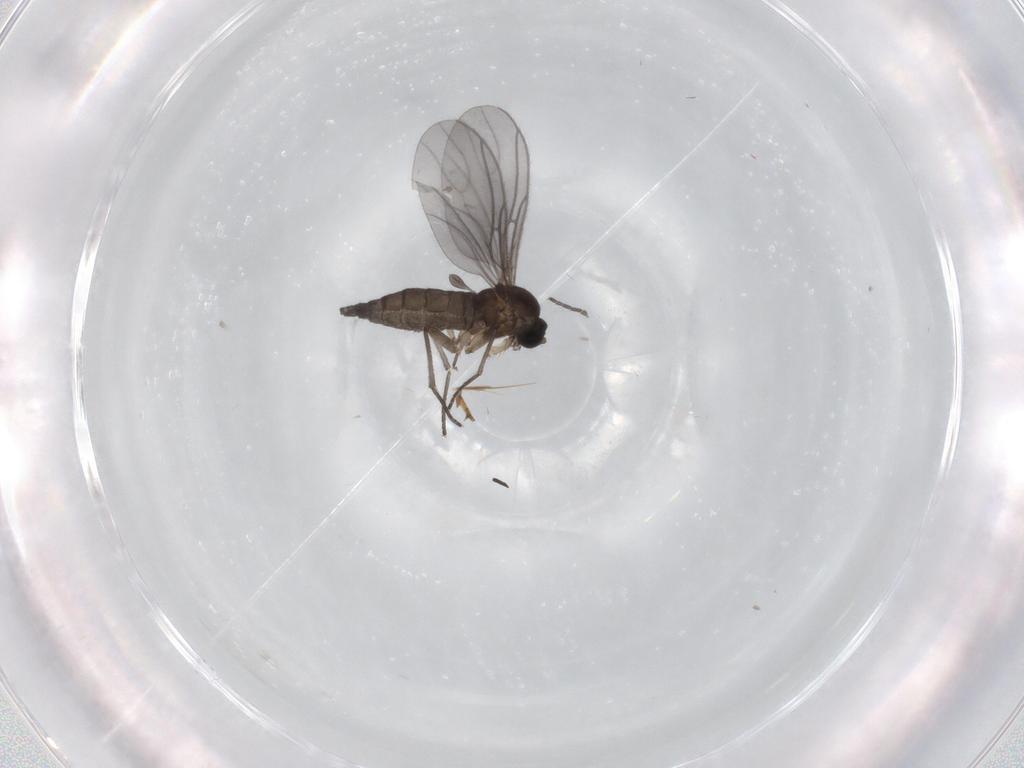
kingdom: Animalia
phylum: Arthropoda
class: Insecta
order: Diptera
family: Sciaridae
